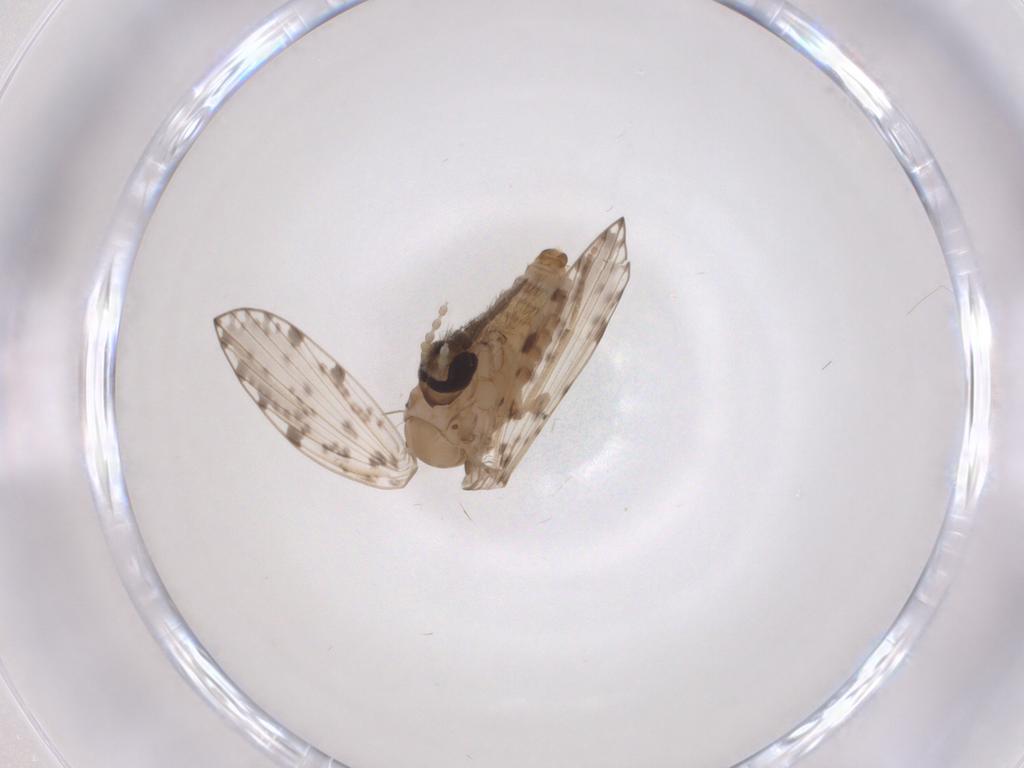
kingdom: Animalia
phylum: Arthropoda
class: Insecta
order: Diptera
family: Psychodidae
